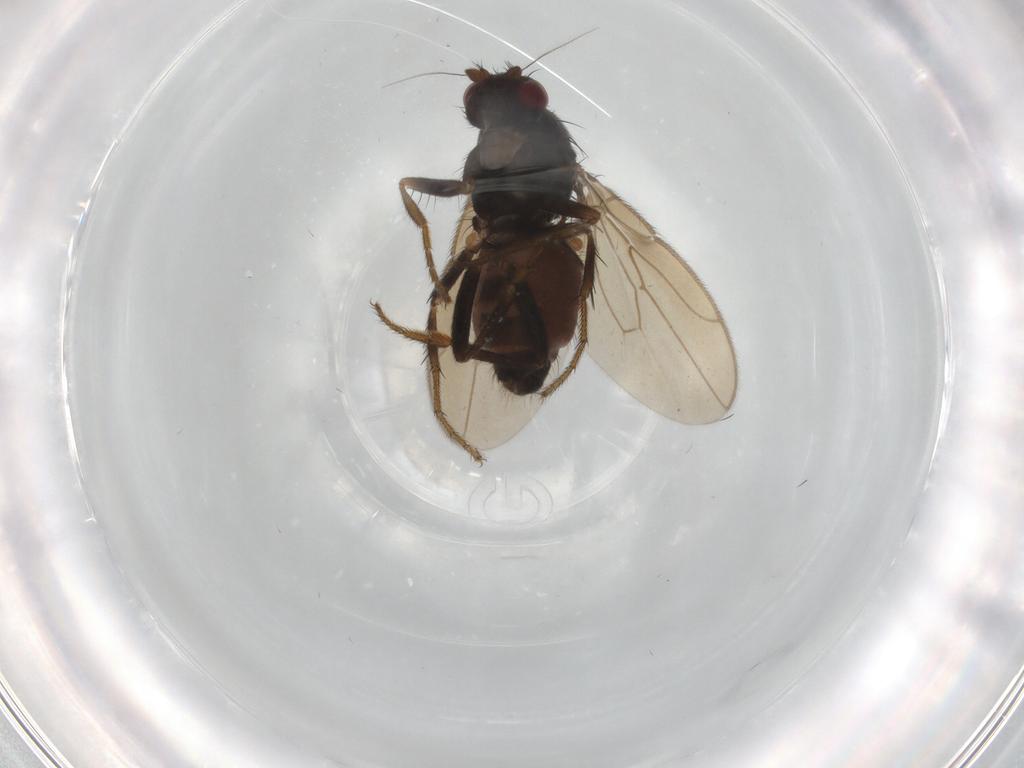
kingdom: Animalia
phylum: Arthropoda
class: Insecta
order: Diptera
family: Phoridae
